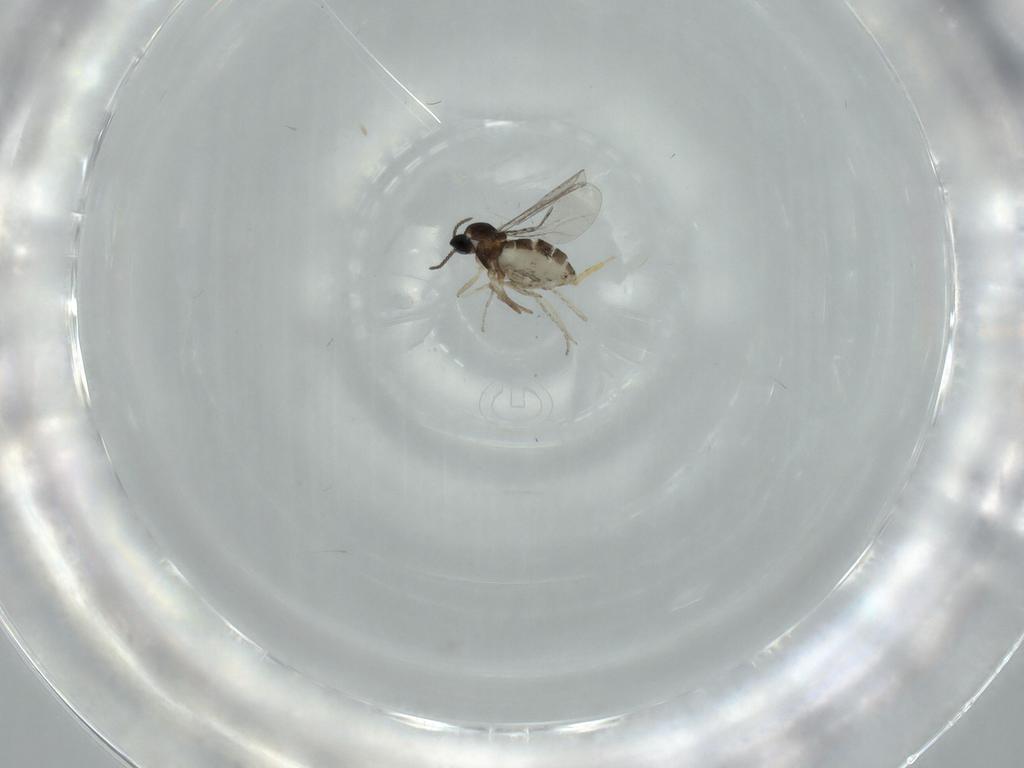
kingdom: Animalia
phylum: Arthropoda
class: Insecta
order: Diptera
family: Cecidomyiidae
